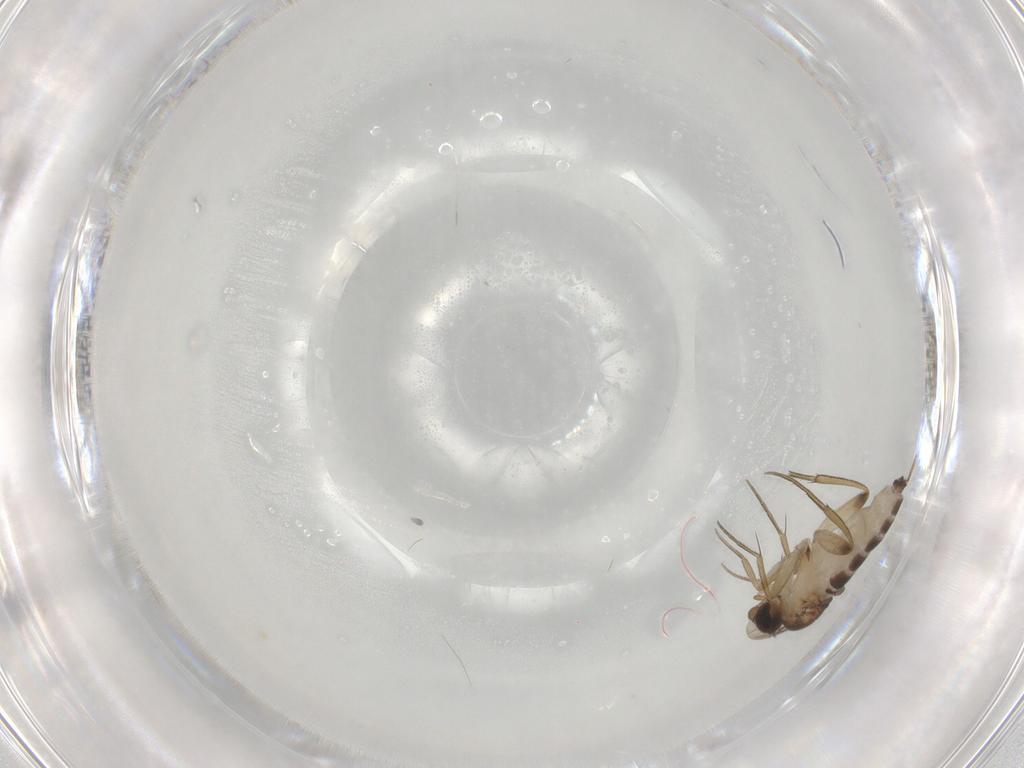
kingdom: Animalia
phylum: Arthropoda
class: Insecta
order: Diptera
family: Phoridae
